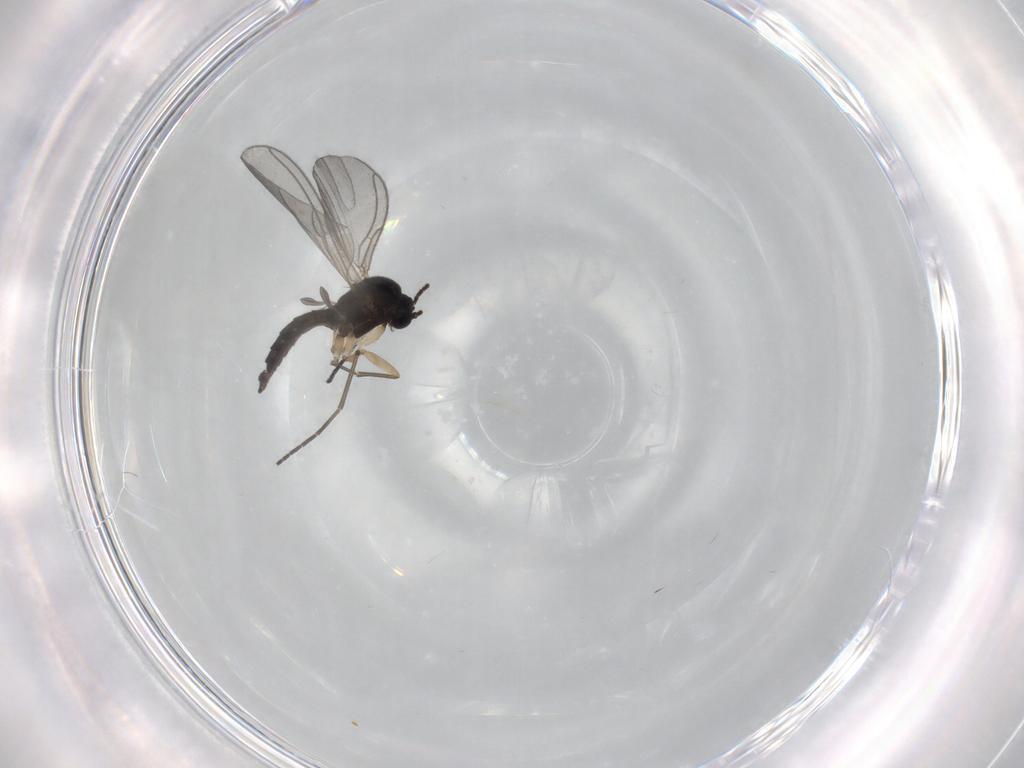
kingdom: Animalia
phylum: Arthropoda
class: Insecta
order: Diptera
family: Sciaridae
